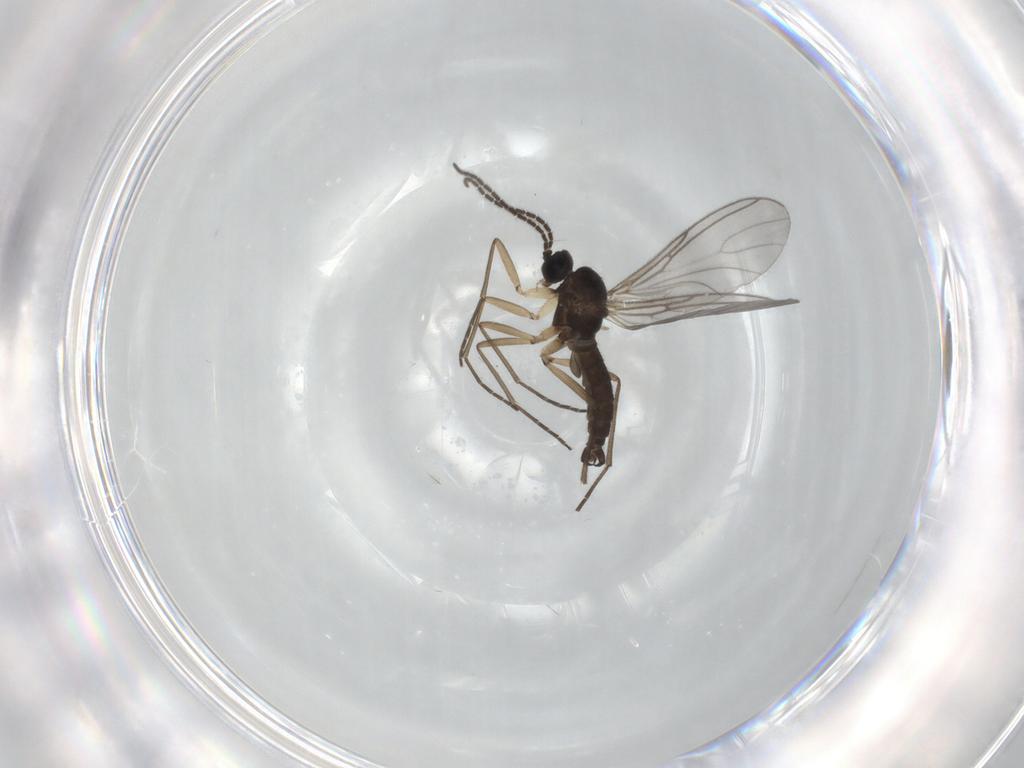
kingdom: Animalia
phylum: Arthropoda
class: Insecta
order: Diptera
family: Sciaridae
